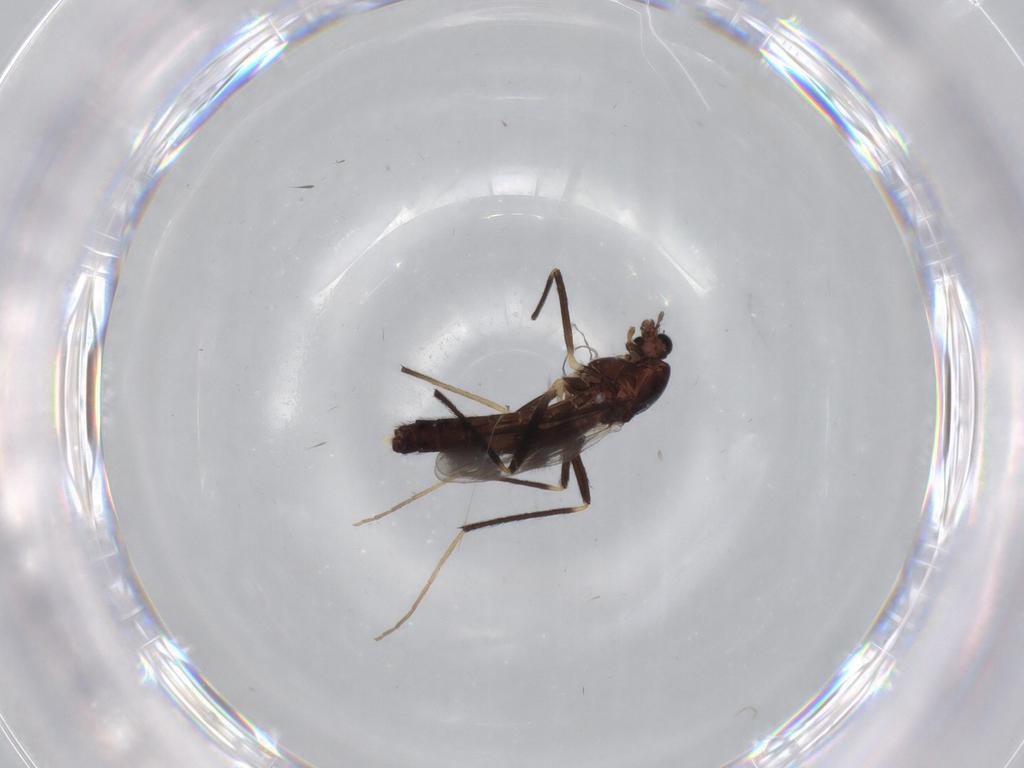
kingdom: Animalia
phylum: Arthropoda
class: Insecta
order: Diptera
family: Chironomidae
